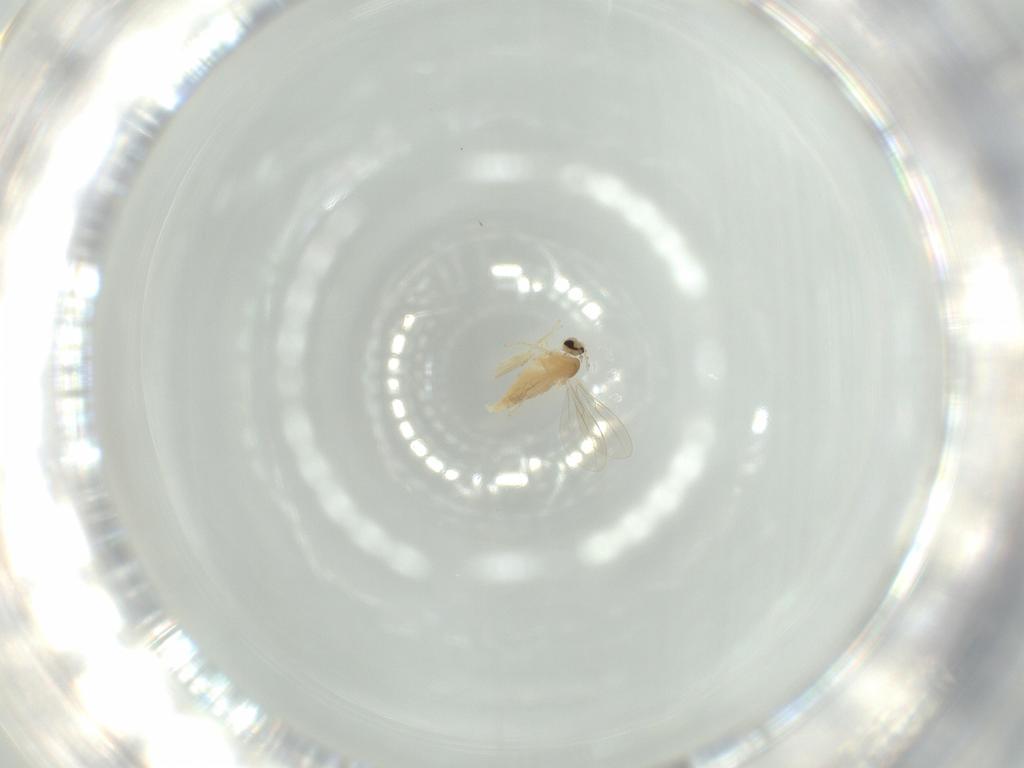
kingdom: Animalia
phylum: Arthropoda
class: Insecta
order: Diptera
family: Cecidomyiidae
